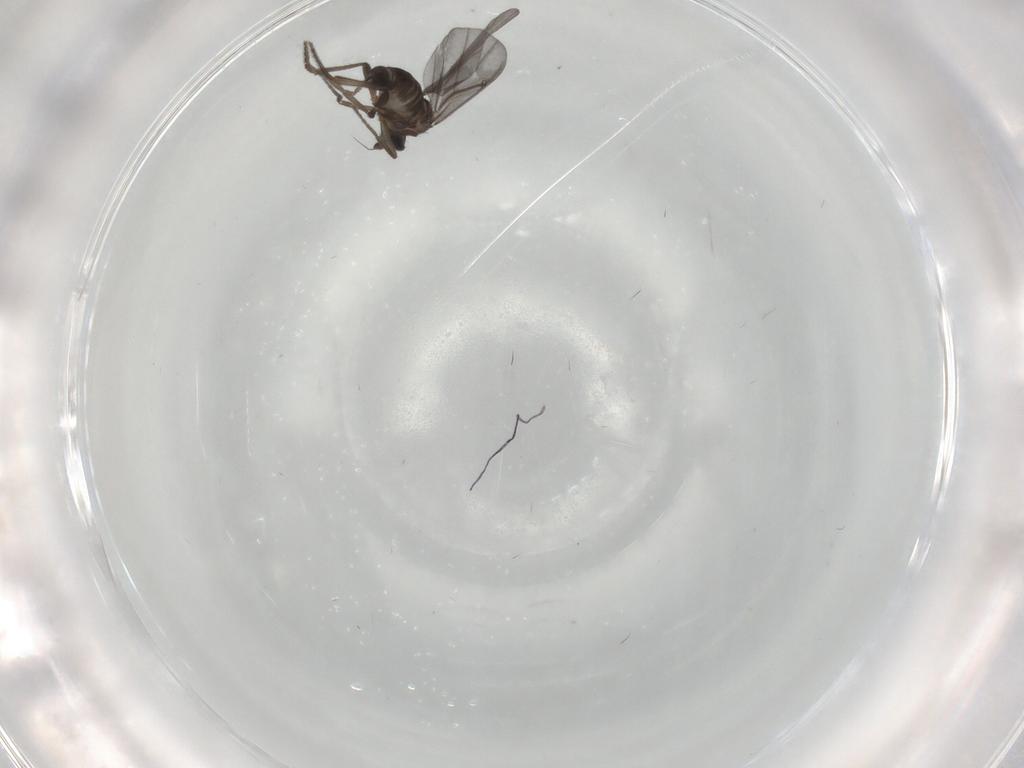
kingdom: Animalia
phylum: Arthropoda
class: Insecta
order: Diptera
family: Phoridae
